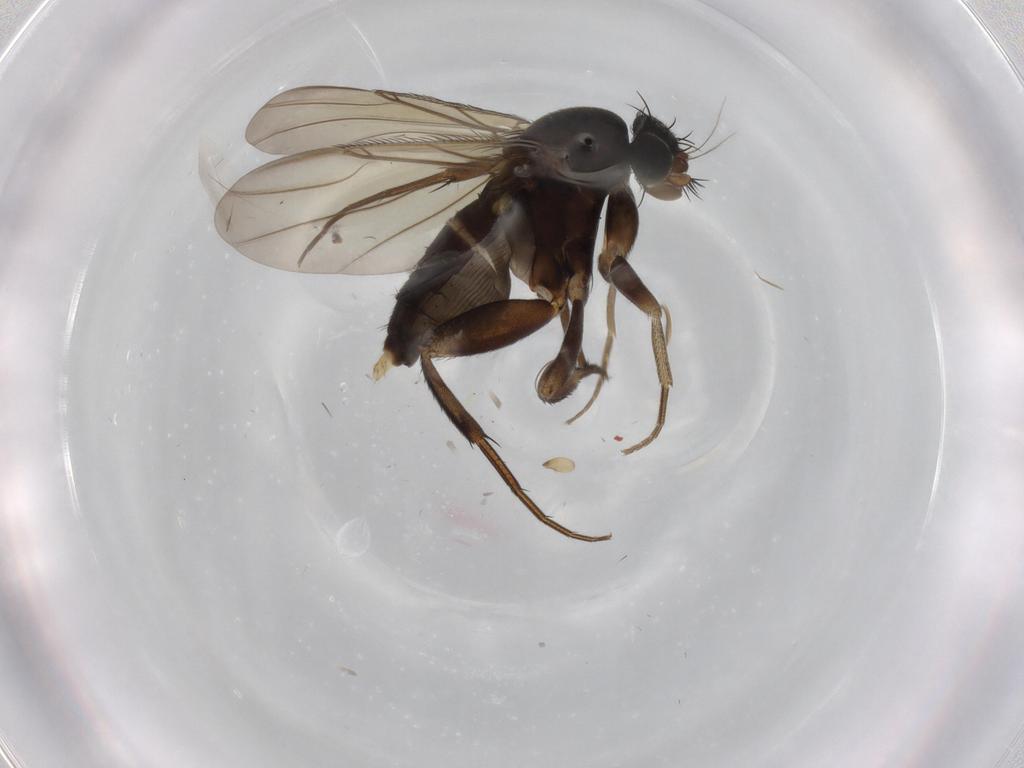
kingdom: Animalia
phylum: Arthropoda
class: Insecta
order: Diptera
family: Phoridae
